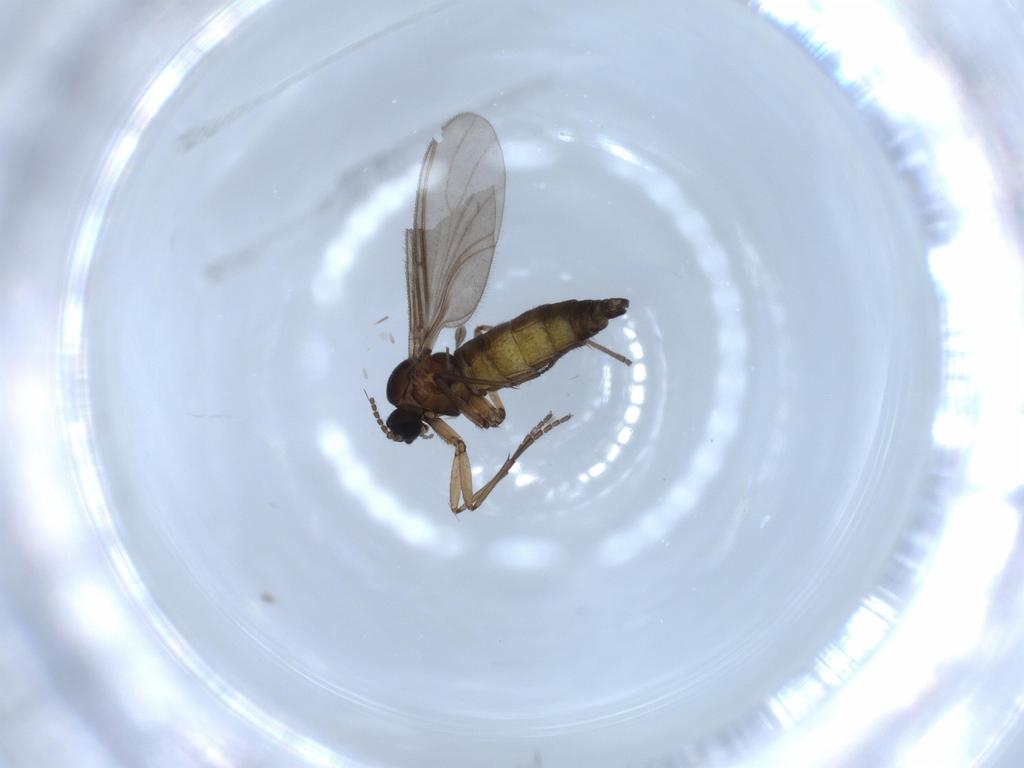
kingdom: Animalia
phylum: Arthropoda
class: Insecta
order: Diptera
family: Sciaridae
